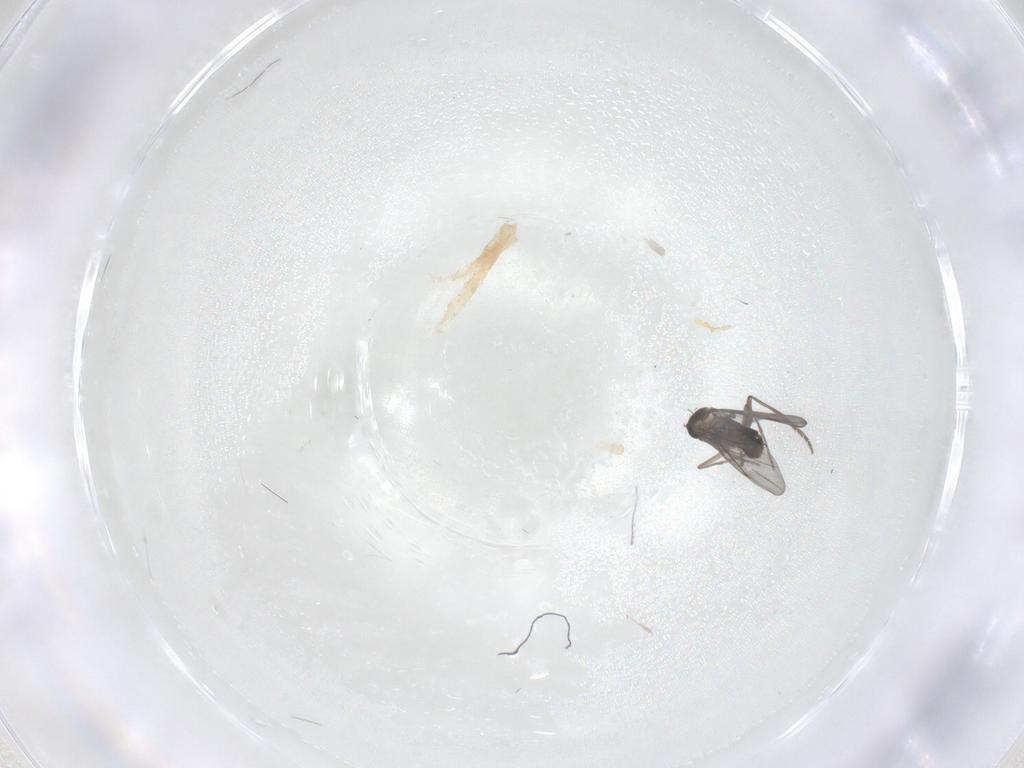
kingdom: Animalia
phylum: Arthropoda
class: Insecta
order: Diptera
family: Phoridae
